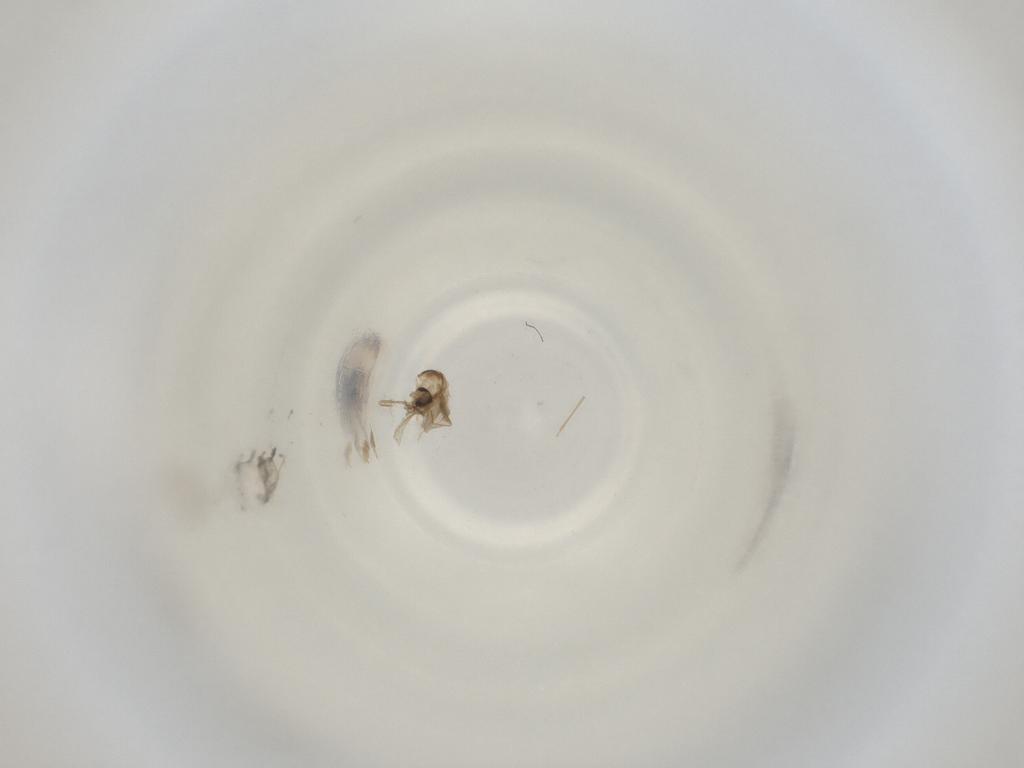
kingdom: Animalia
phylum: Arthropoda
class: Insecta
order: Diptera
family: Cecidomyiidae
